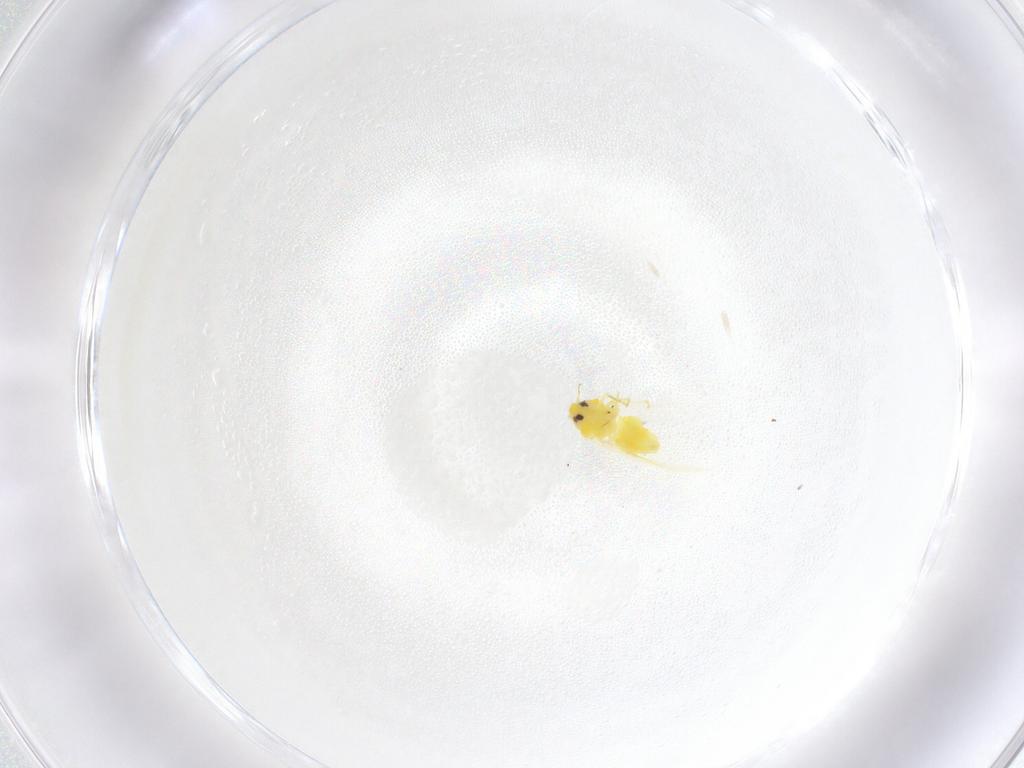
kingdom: Animalia
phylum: Arthropoda
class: Insecta
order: Hemiptera
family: Aleyrodidae
